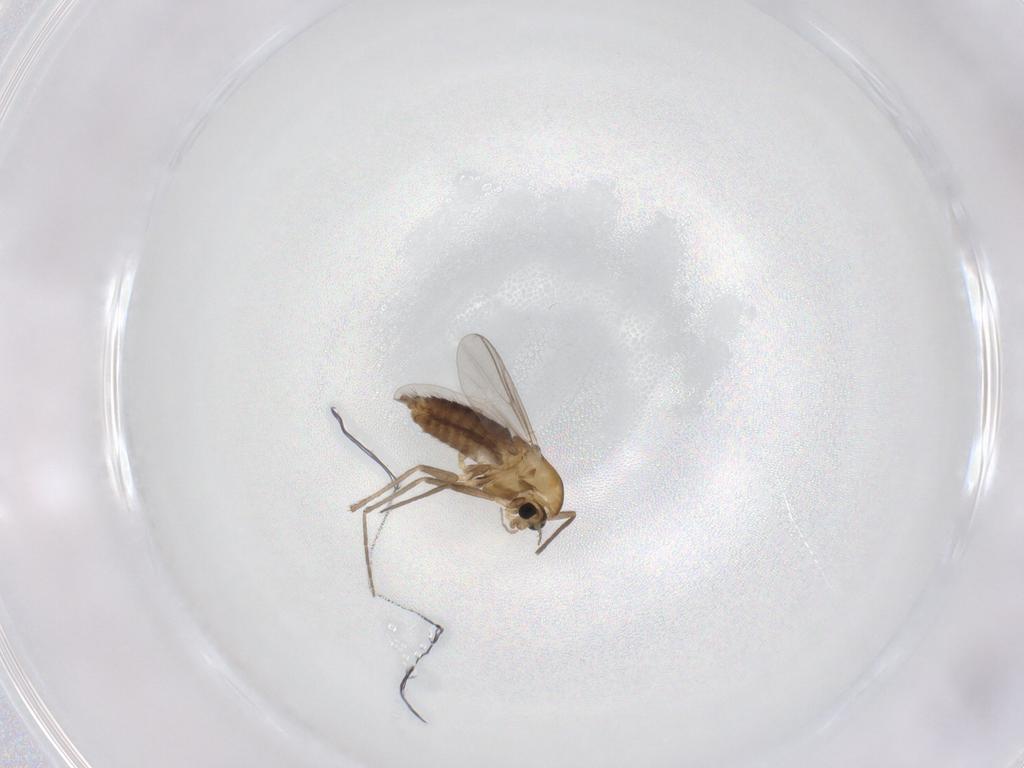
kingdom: Animalia
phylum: Arthropoda
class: Insecta
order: Diptera
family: Chironomidae
